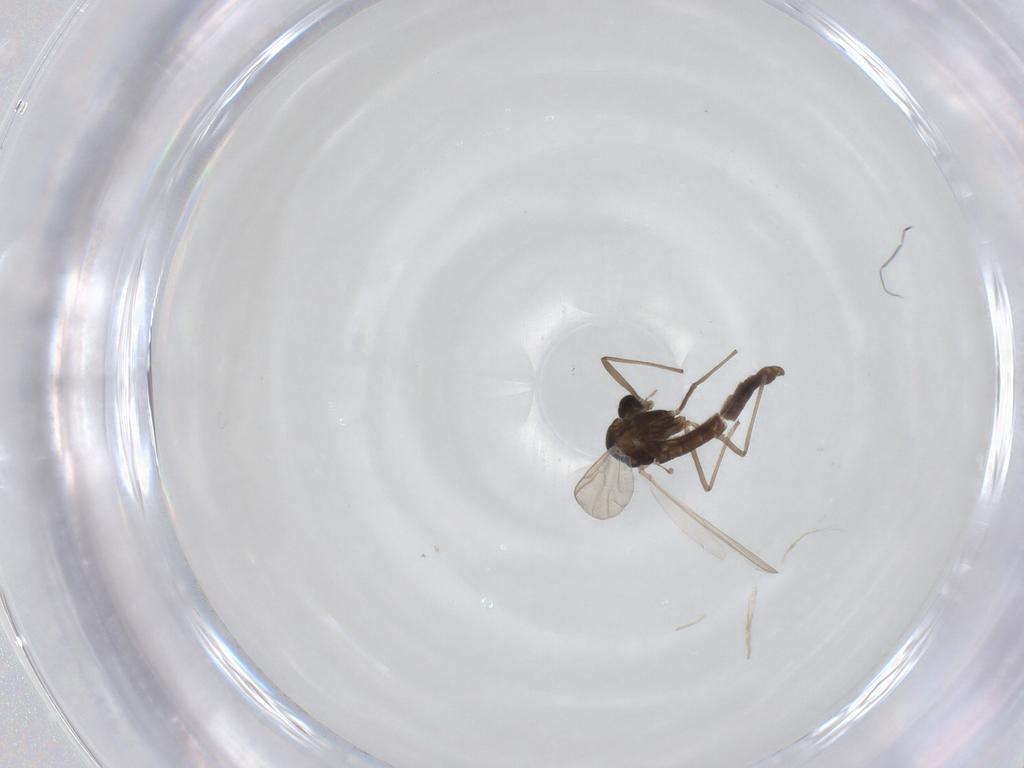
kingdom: Animalia
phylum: Arthropoda
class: Insecta
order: Diptera
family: Chironomidae
